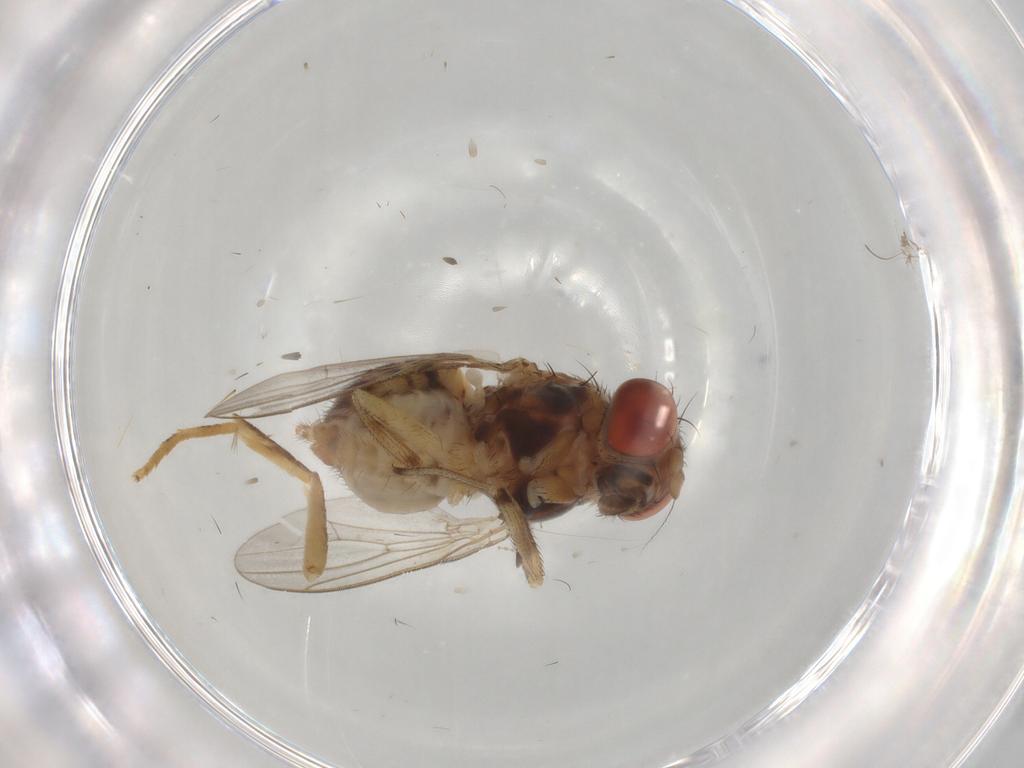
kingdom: Animalia
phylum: Arthropoda
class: Insecta
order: Diptera
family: Drosophilidae
